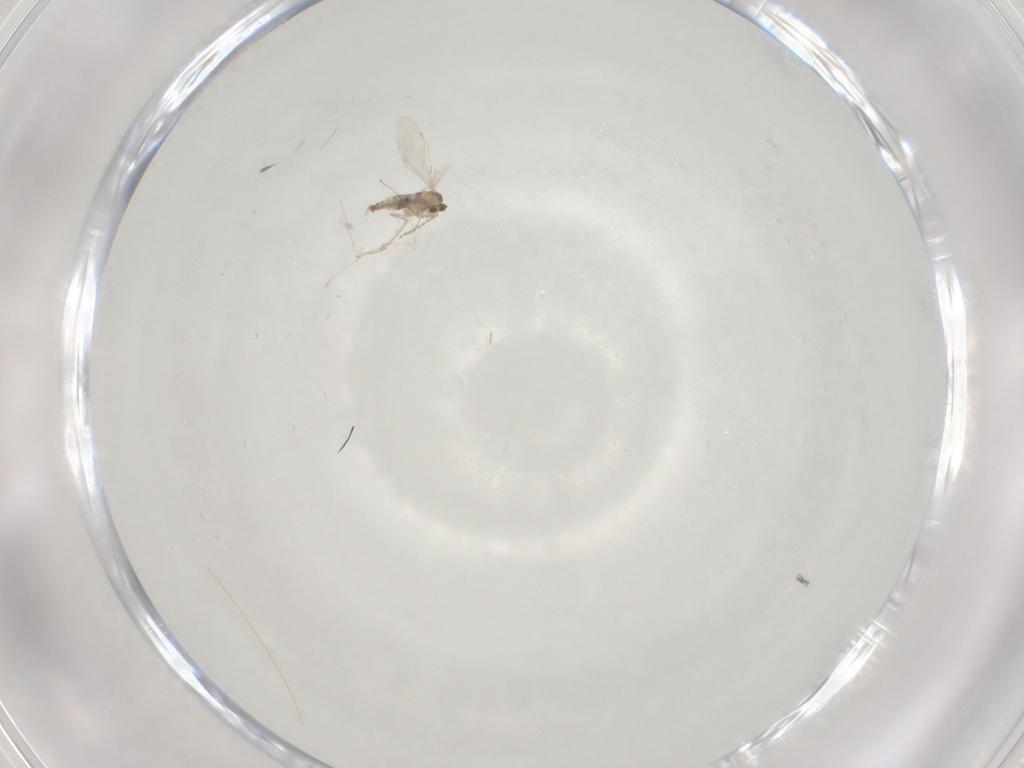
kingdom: Animalia
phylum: Arthropoda
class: Insecta
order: Diptera
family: Cecidomyiidae
